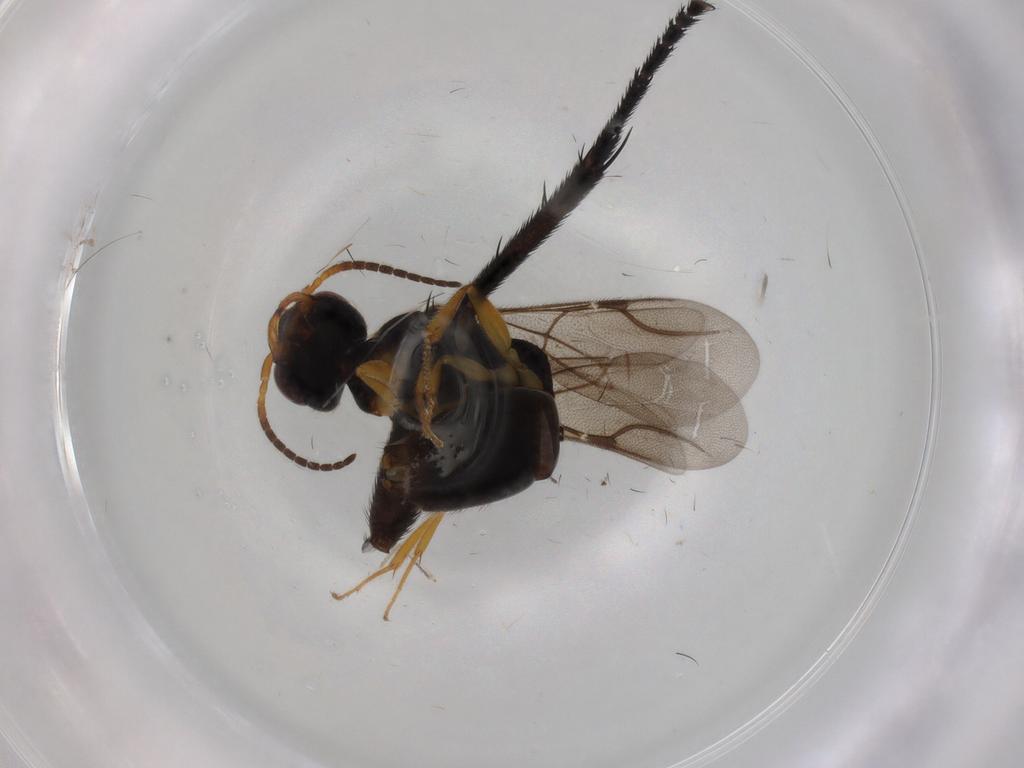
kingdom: Animalia
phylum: Arthropoda
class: Insecta
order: Hymenoptera
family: Bethylidae
